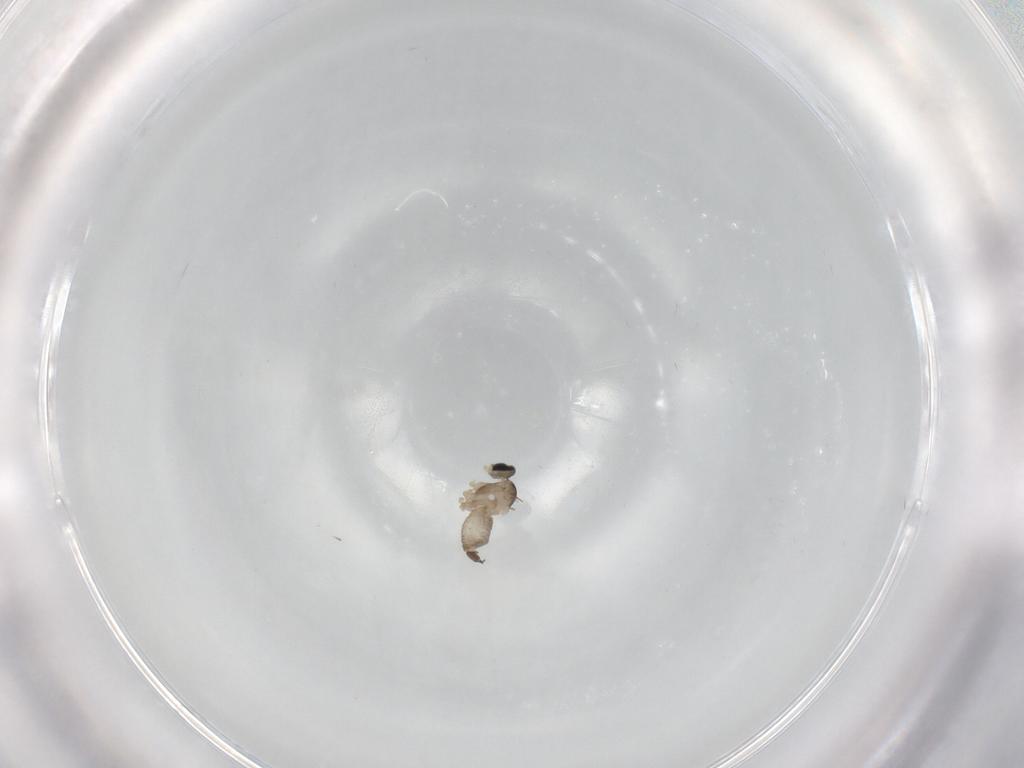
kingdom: Animalia
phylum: Arthropoda
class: Insecta
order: Diptera
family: Cecidomyiidae
